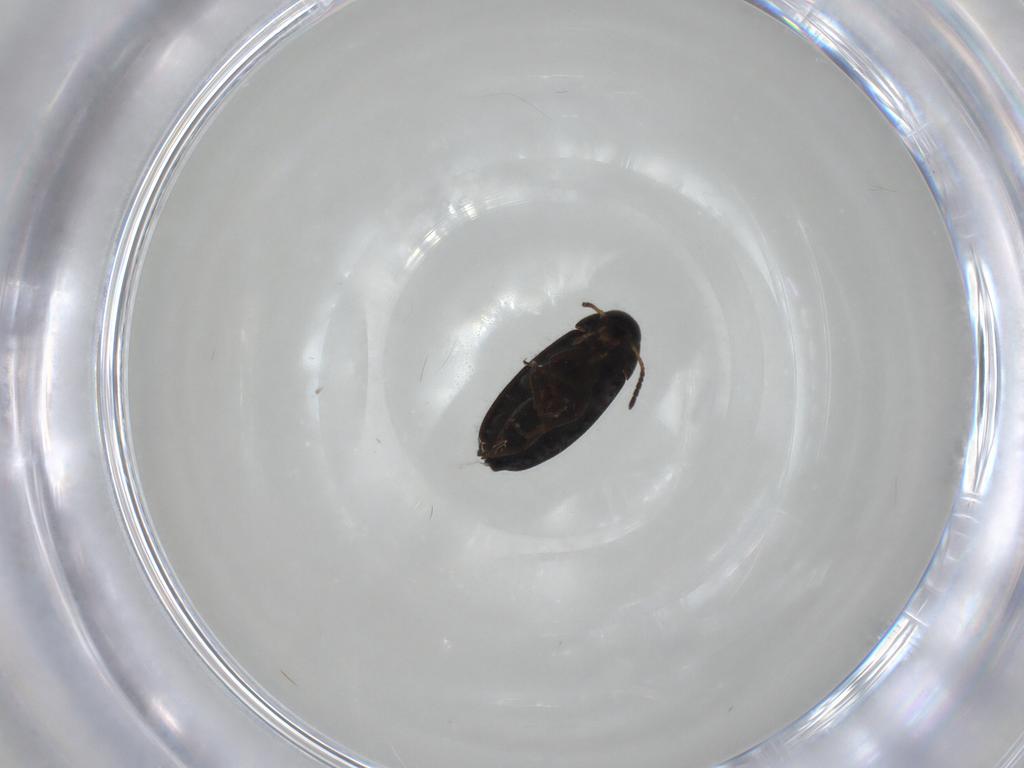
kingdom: Animalia
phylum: Arthropoda
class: Insecta
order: Coleoptera
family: Scraptiidae
